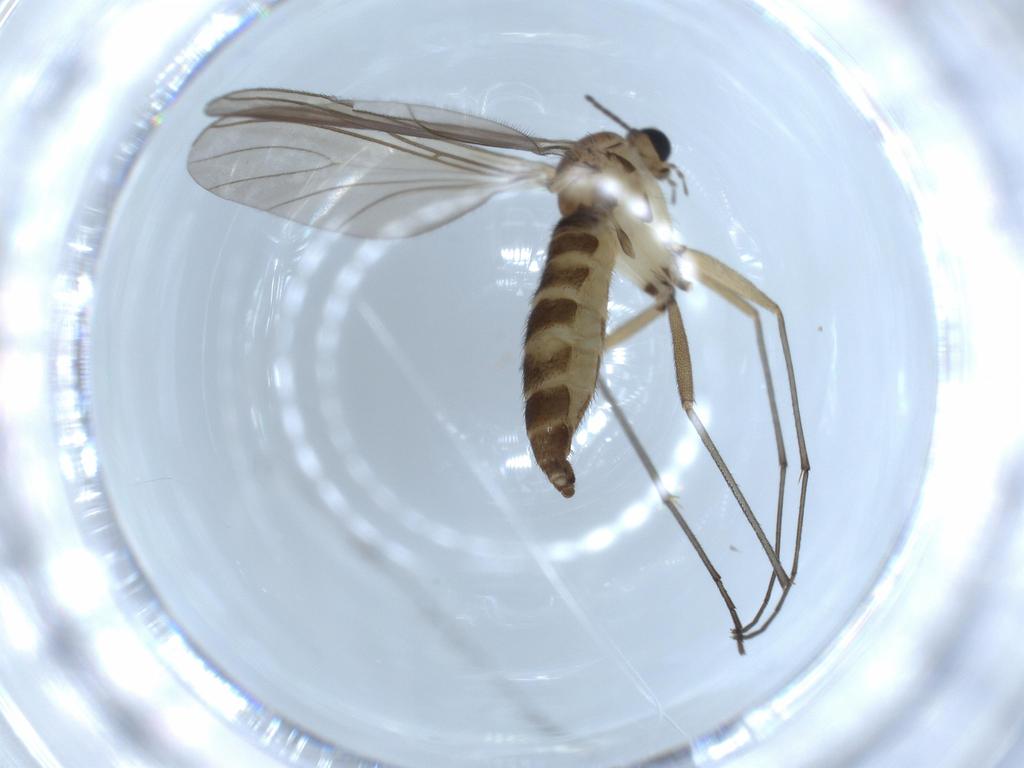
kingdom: Animalia
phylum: Arthropoda
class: Insecta
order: Diptera
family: Sciaridae
